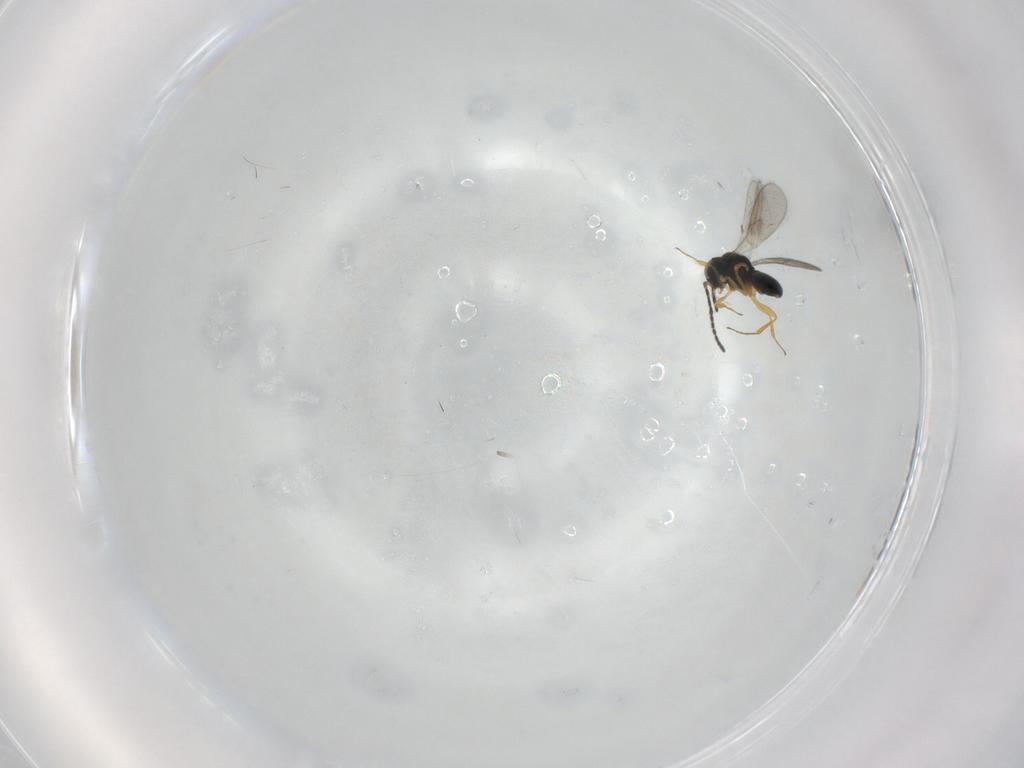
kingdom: Animalia
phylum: Arthropoda
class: Insecta
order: Hymenoptera
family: Scelionidae
